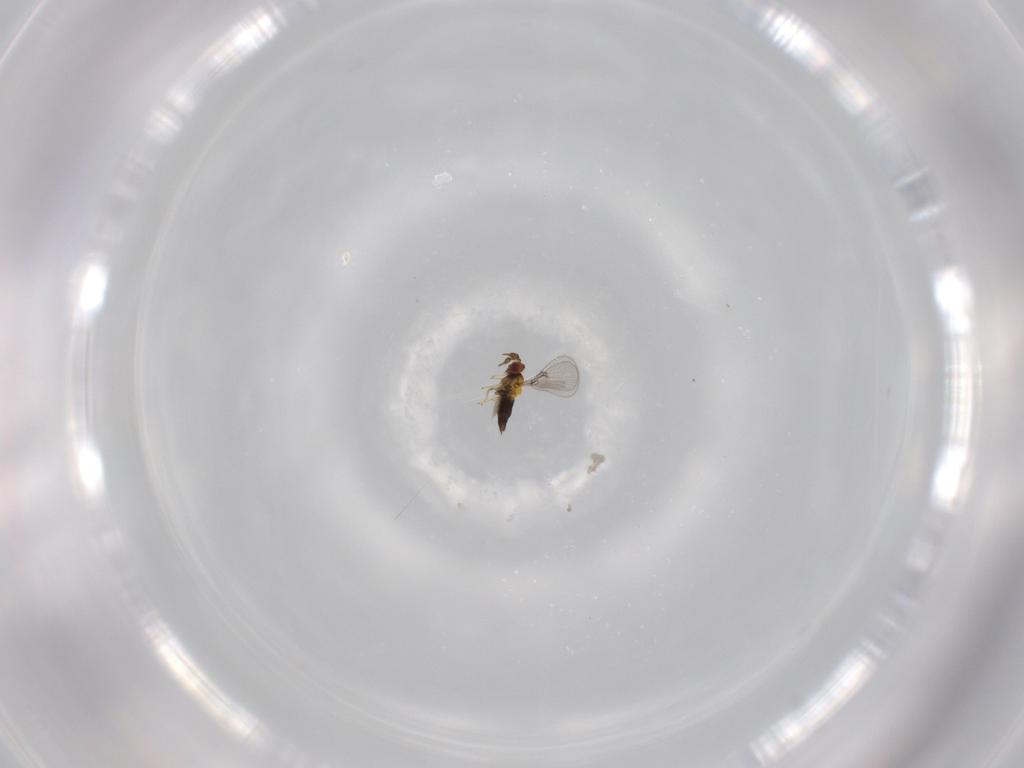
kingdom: Animalia
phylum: Arthropoda
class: Insecta
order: Hymenoptera
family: Trichogrammatidae
